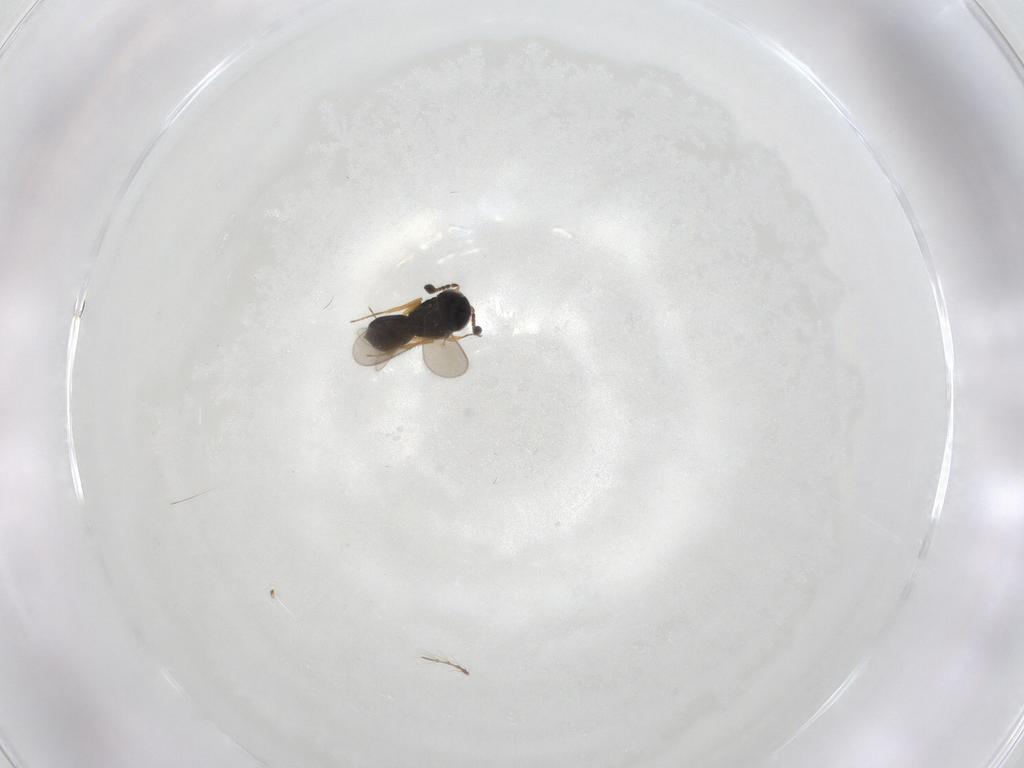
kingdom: Animalia
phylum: Arthropoda
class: Insecta
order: Hymenoptera
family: Scelionidae
